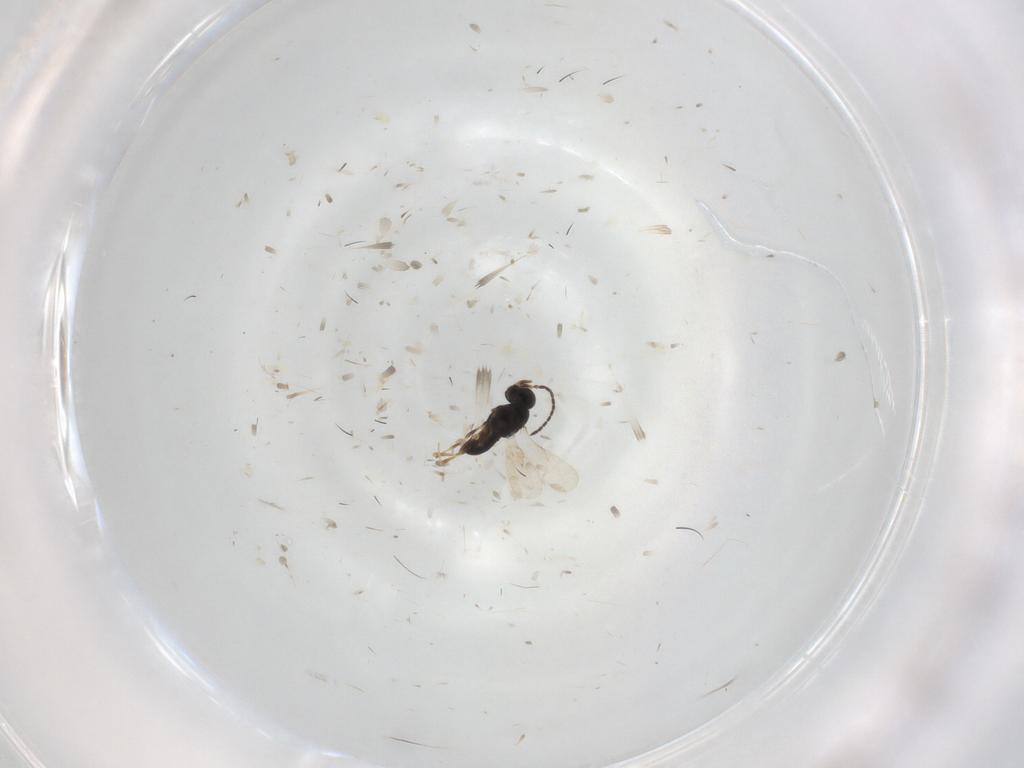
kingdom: Animalia
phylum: Arthropoda
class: Insecta
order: Hymenoptera
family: Scelionidae
